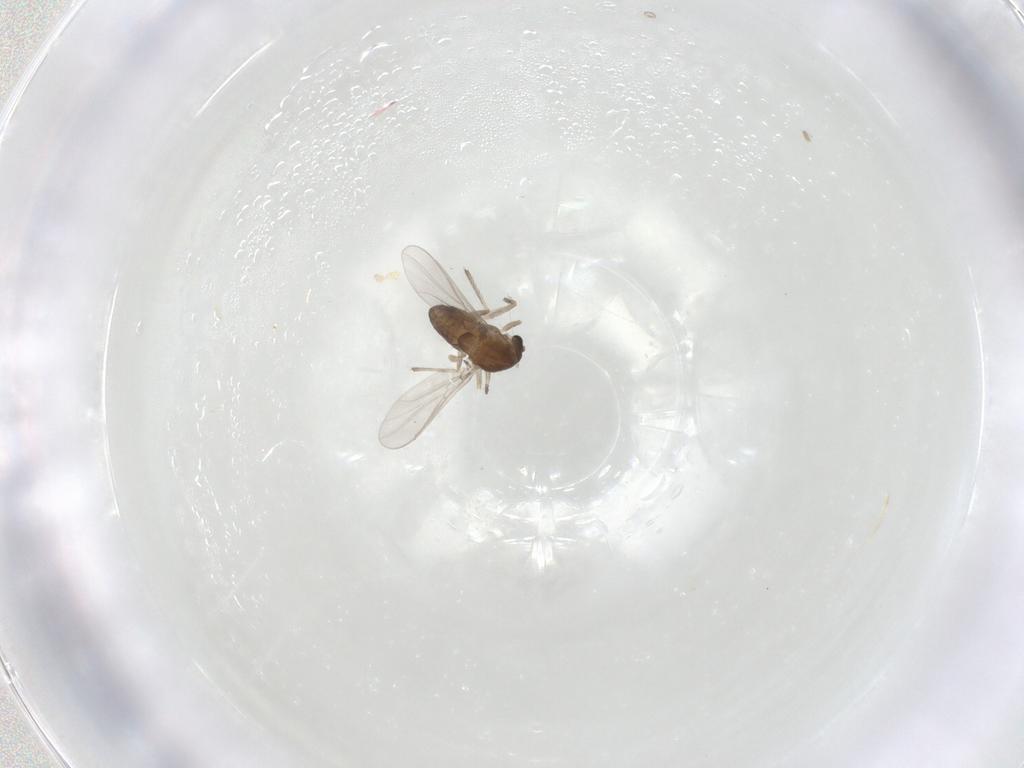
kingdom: Animalia
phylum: Arthropoda
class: Insecta
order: Diptera
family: Chironomidae
